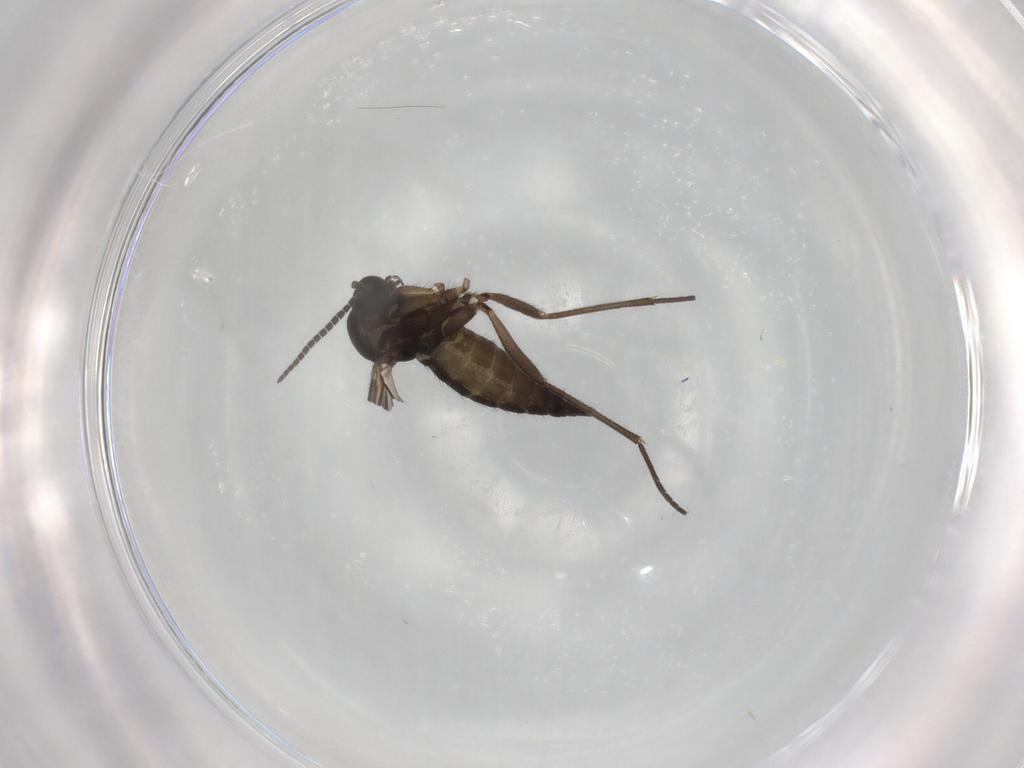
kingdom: Animalia
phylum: Arthropoda
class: Insecta
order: Diptera
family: Sciaridae
